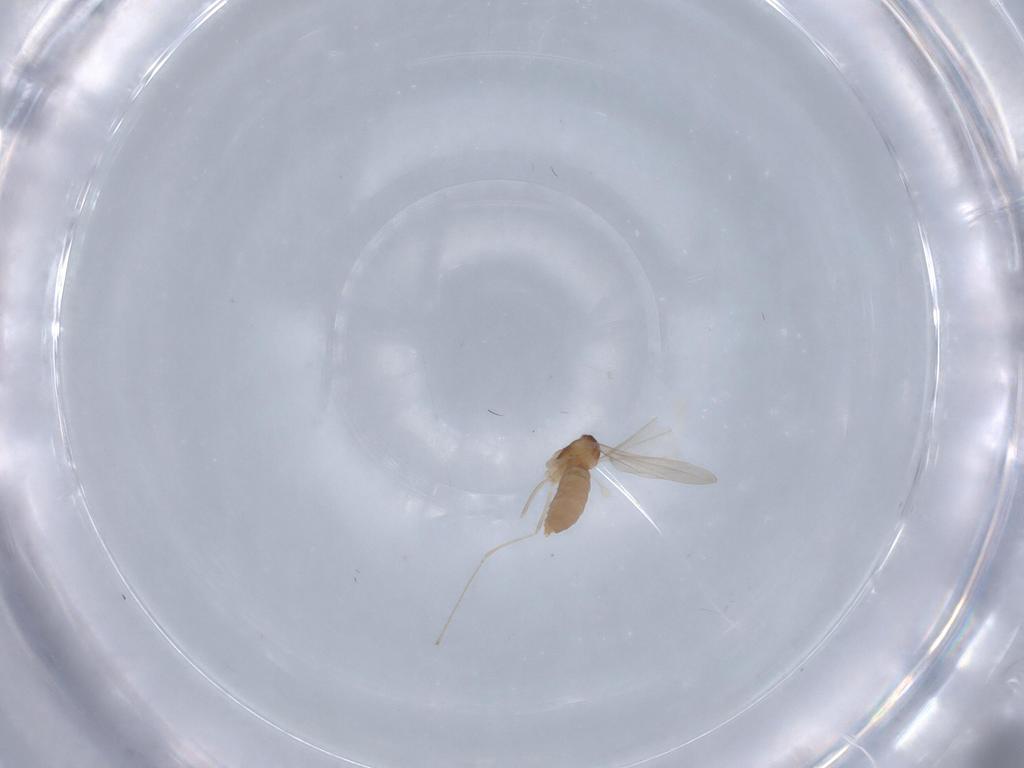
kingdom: Animalia
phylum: Arthropoda
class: Insecta
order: Diptera
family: Cecidomyiidae
